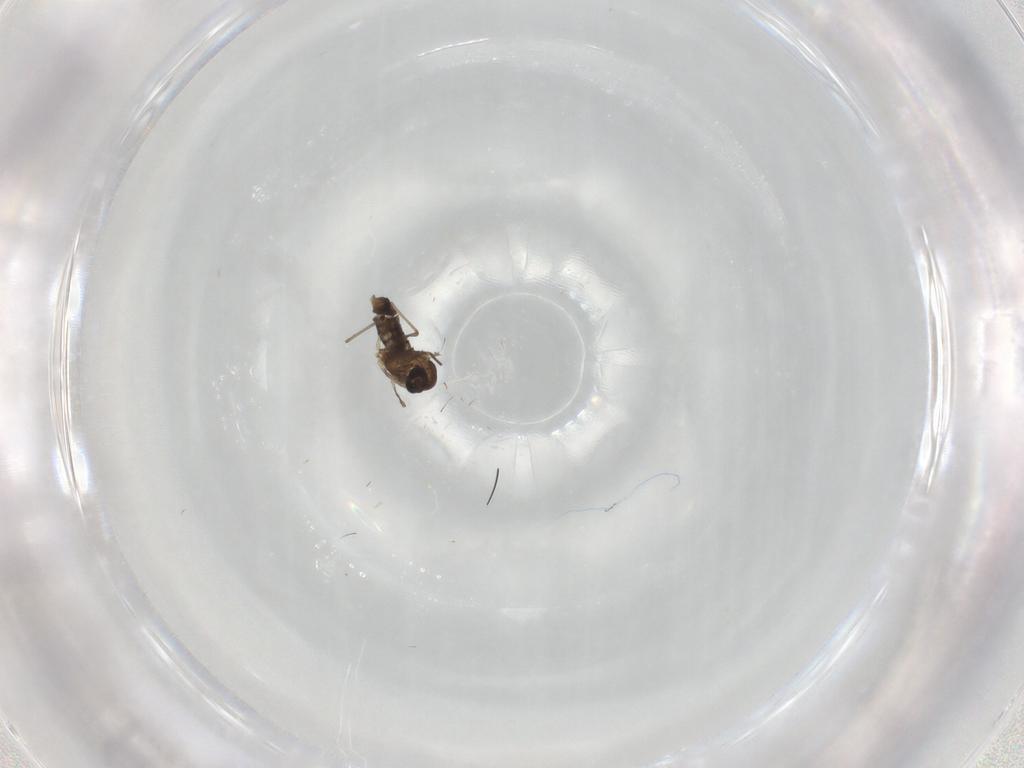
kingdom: Animalia
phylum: Arthropoda
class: Insecta
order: Diptera
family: Chironomidae
